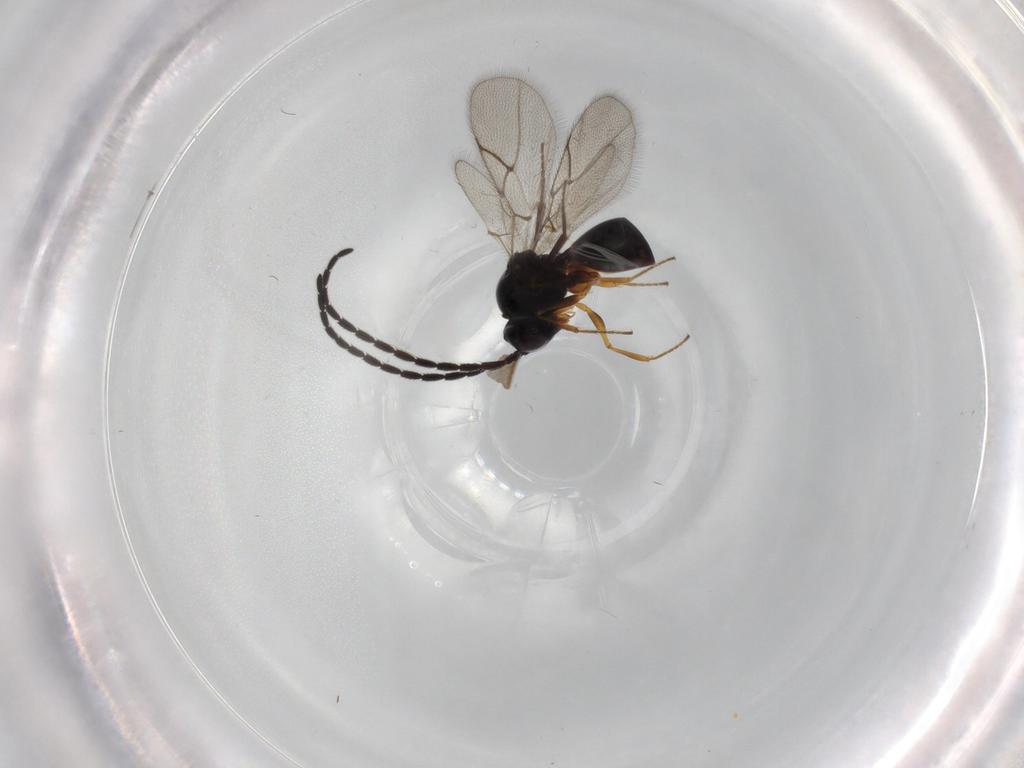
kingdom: Animalia
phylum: Arthropoda
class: Insecta
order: Hymenoptera
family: Figitidae
